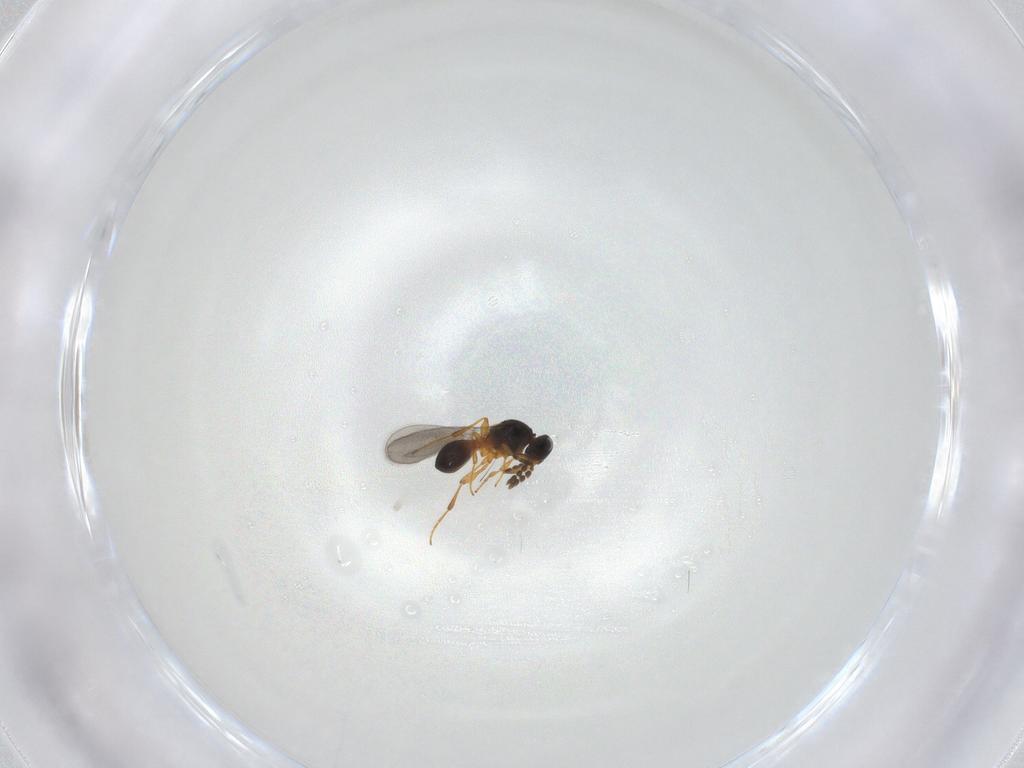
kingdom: Animalia
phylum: Arthropoda
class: Insecta
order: Hymenoptera
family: Platygastridae
